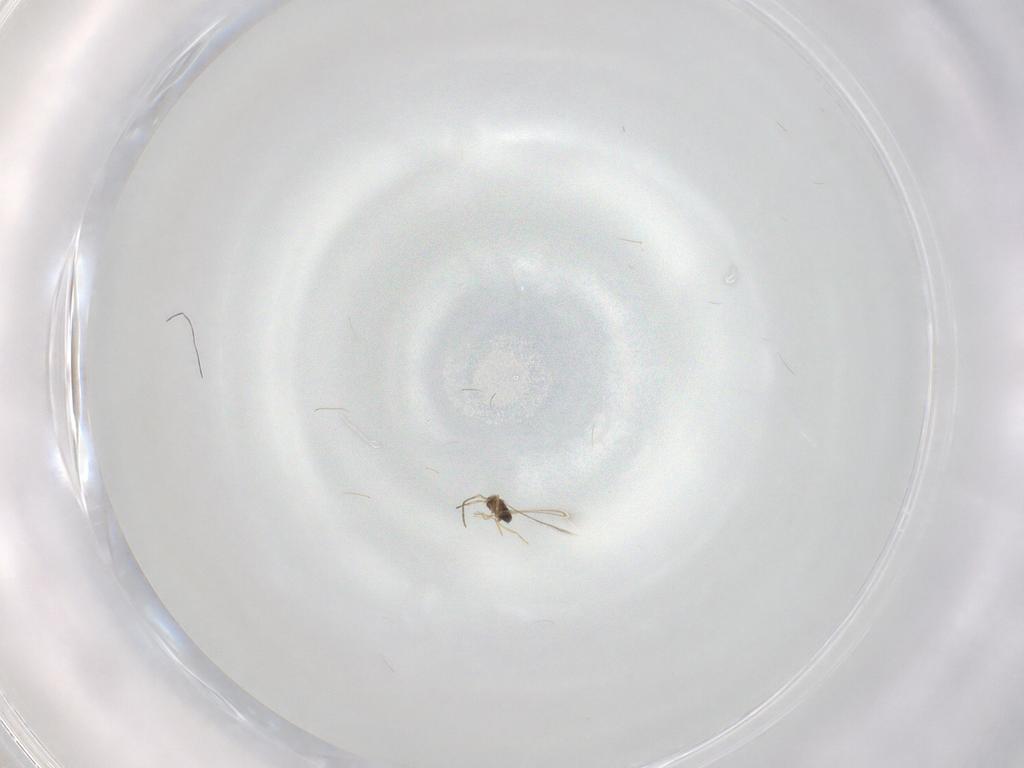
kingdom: Animalia
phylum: Arthropoda
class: Insecta
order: Hymenoptera
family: Mymaridae
